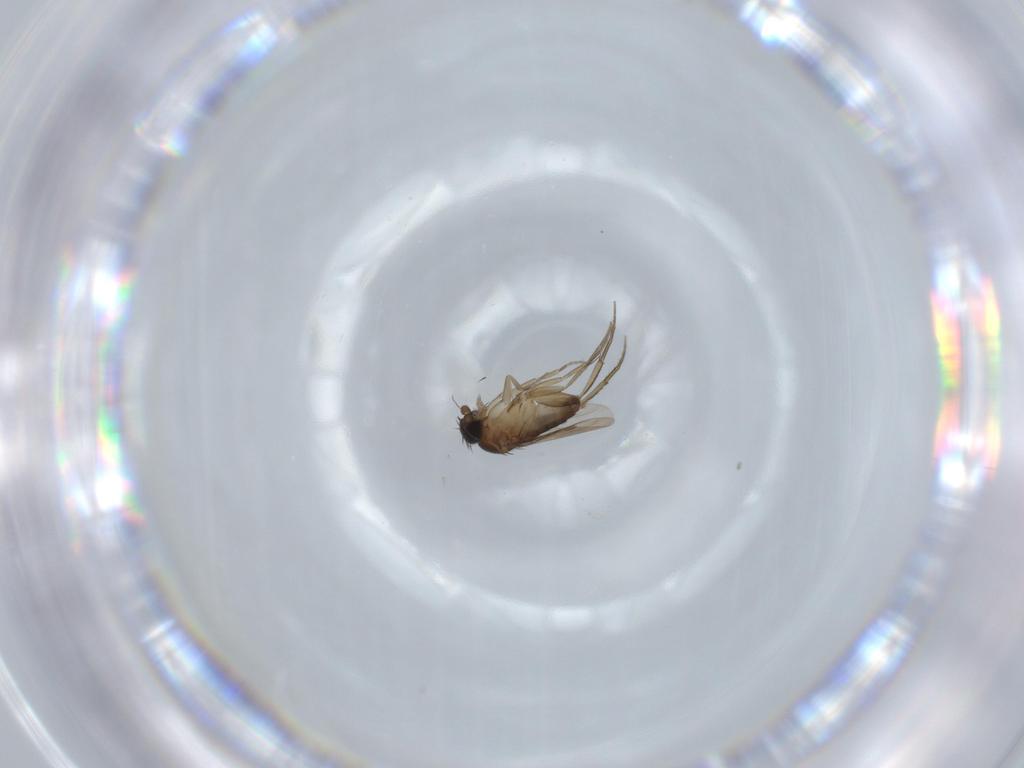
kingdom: Animalia
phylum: Arthropoda
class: Insecta
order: Diptera
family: Phoridae
